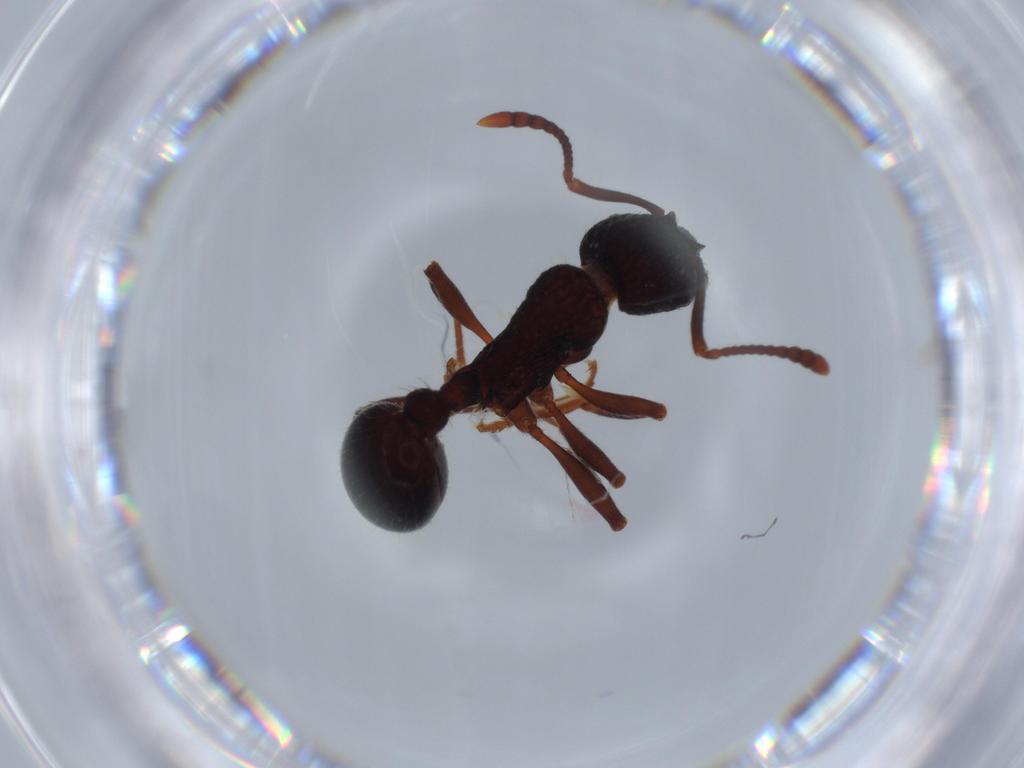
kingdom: Animalia
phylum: Arthropoda
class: Insecta
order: Hymenoptera
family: Formicidae
